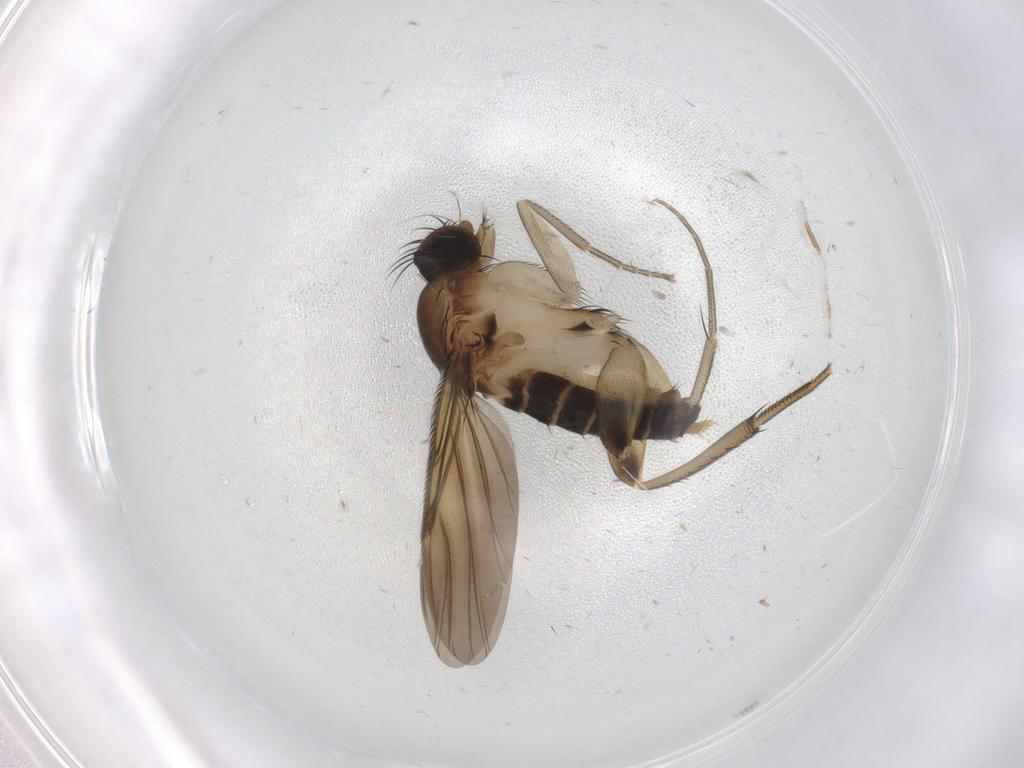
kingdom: Animalia
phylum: Arthropoda
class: Insecta
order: Diptera
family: Phoridae
